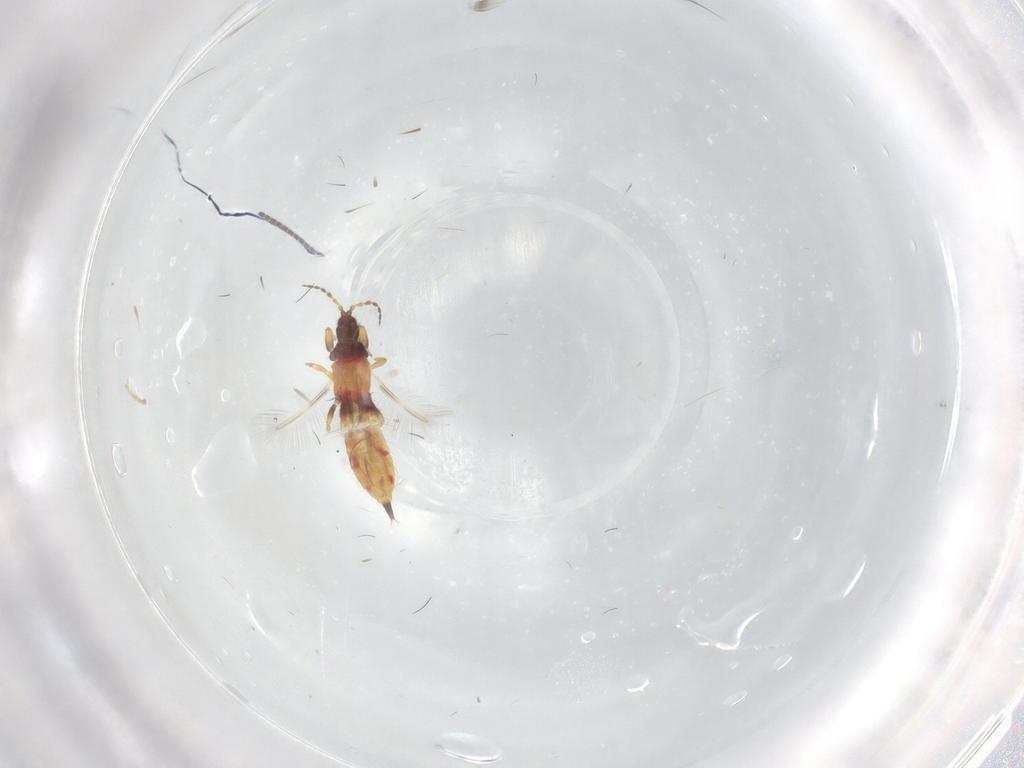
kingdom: Animalia
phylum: Arthropoda
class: Insecta
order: Thysanoptera
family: Phlaeothripidae
